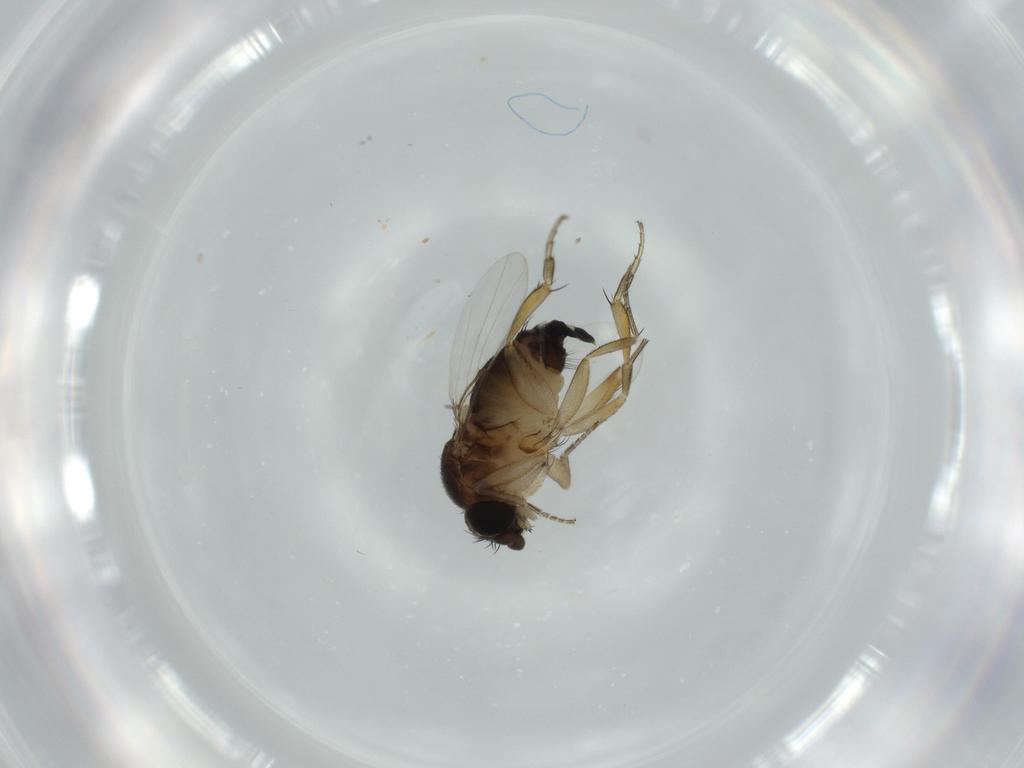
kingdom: Animalia
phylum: Arthropoda
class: Insecta
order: Diptera
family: Phoridae
